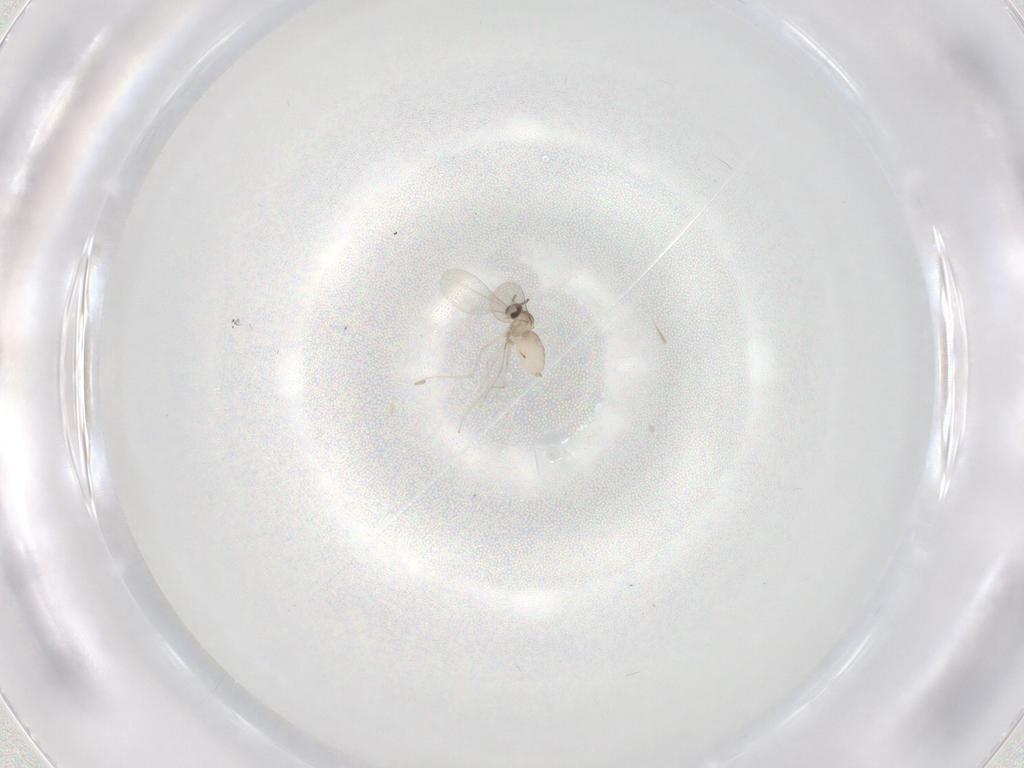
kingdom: Animalia
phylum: Arthropoda
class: Insecta
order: Diptera
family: Cecidomyiidae
